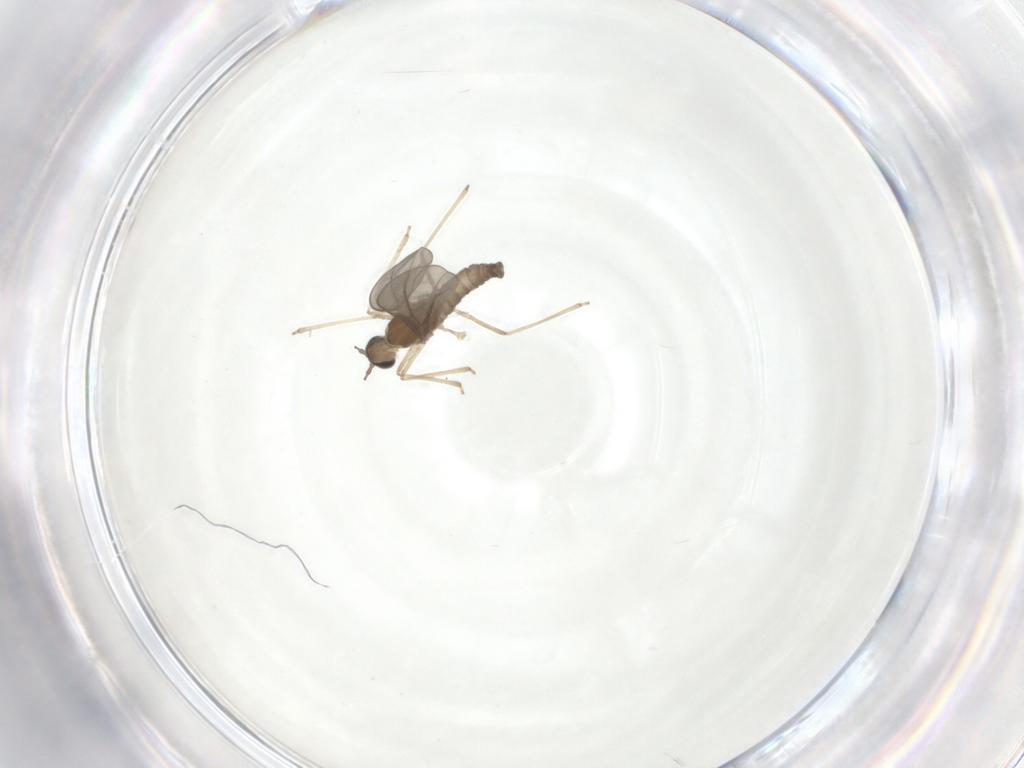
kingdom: Animalia
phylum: Arthropoda
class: Insecta
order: Diptera
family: Cecidomyiidae
